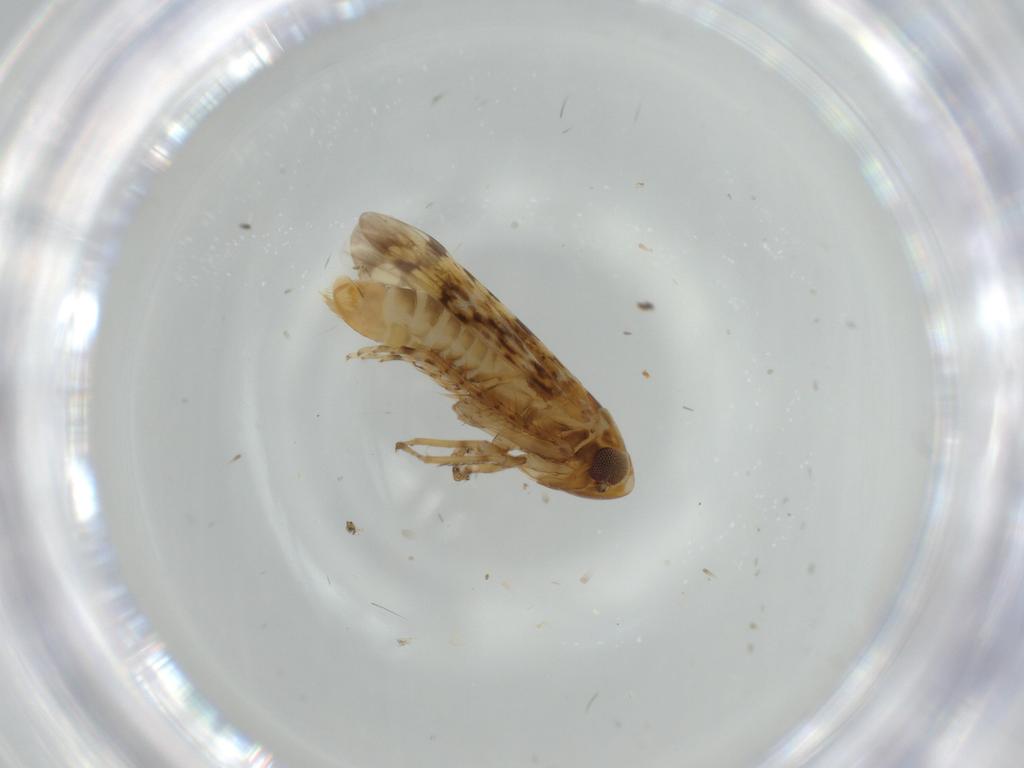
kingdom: Animalia
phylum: Arthropoda
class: Insecta
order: Hemiptera
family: Cicadellidae
